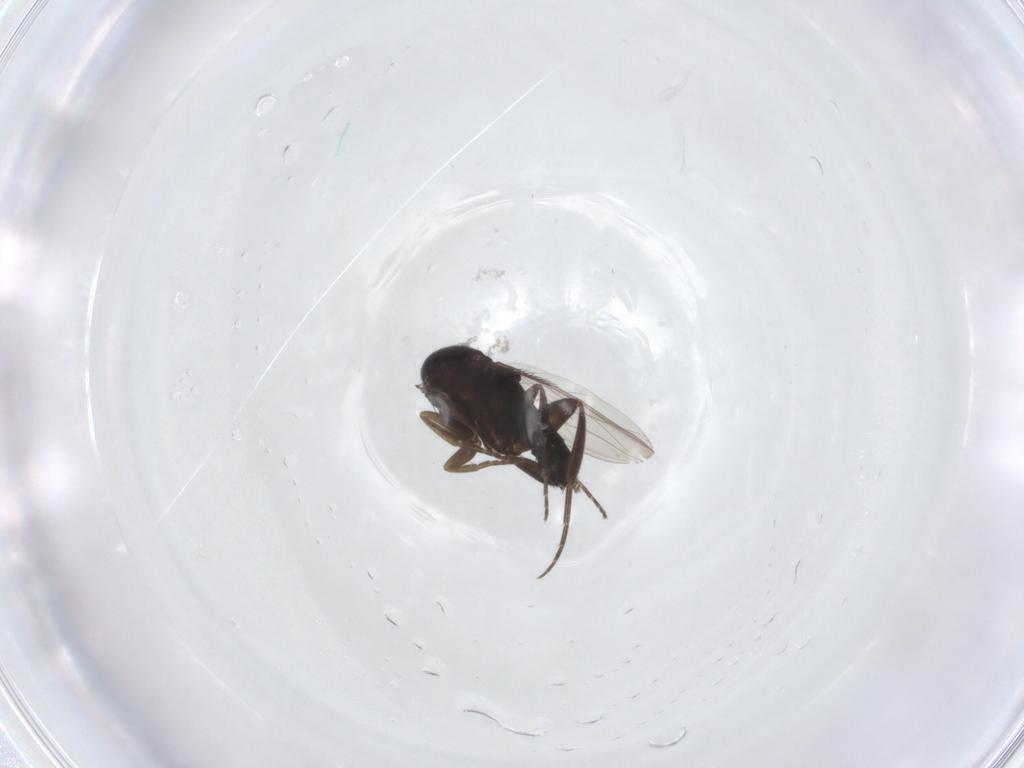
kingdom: Animalia
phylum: Arthropoda
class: Insecta
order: Diptera
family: Phoridae
